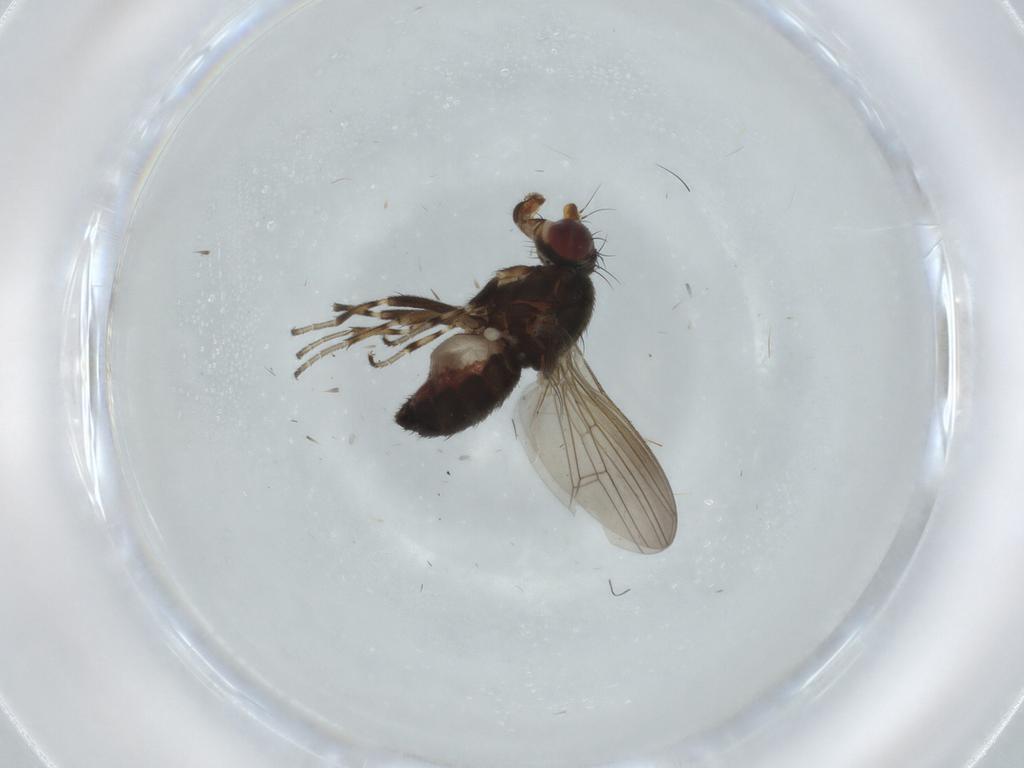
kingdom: Animalia
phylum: Arthropoda
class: Insecta
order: Diptera
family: Heleomyzidae
